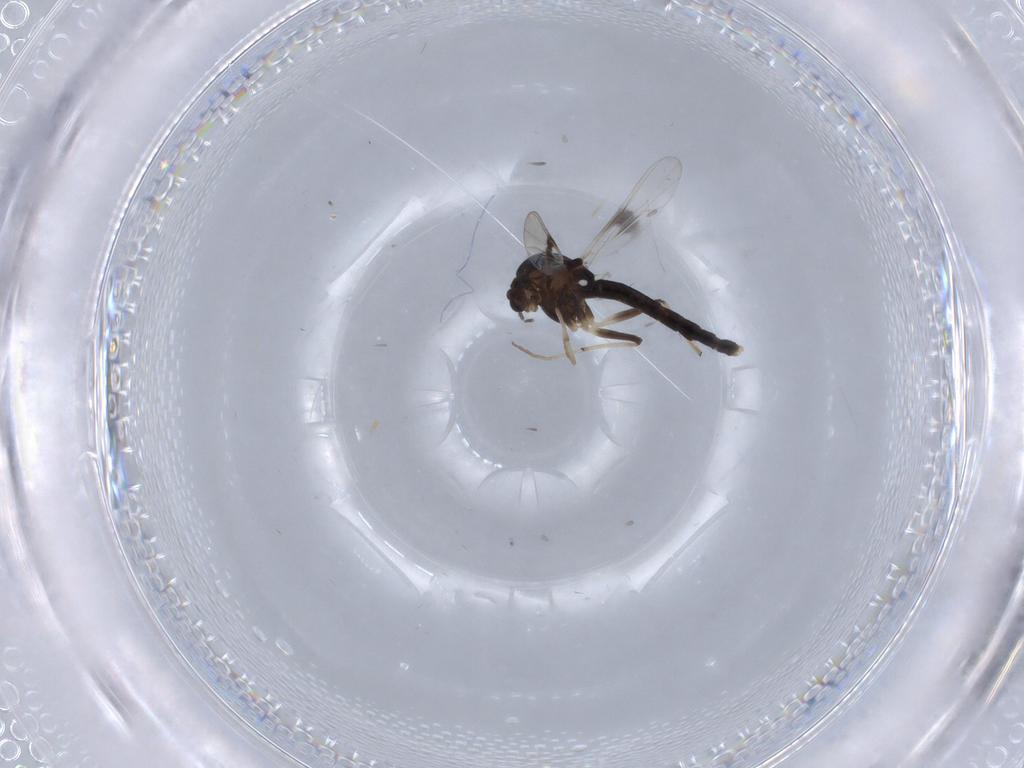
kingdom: Animalia
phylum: Arthropoda
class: Insecta
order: Diptera
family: Chironomidae
